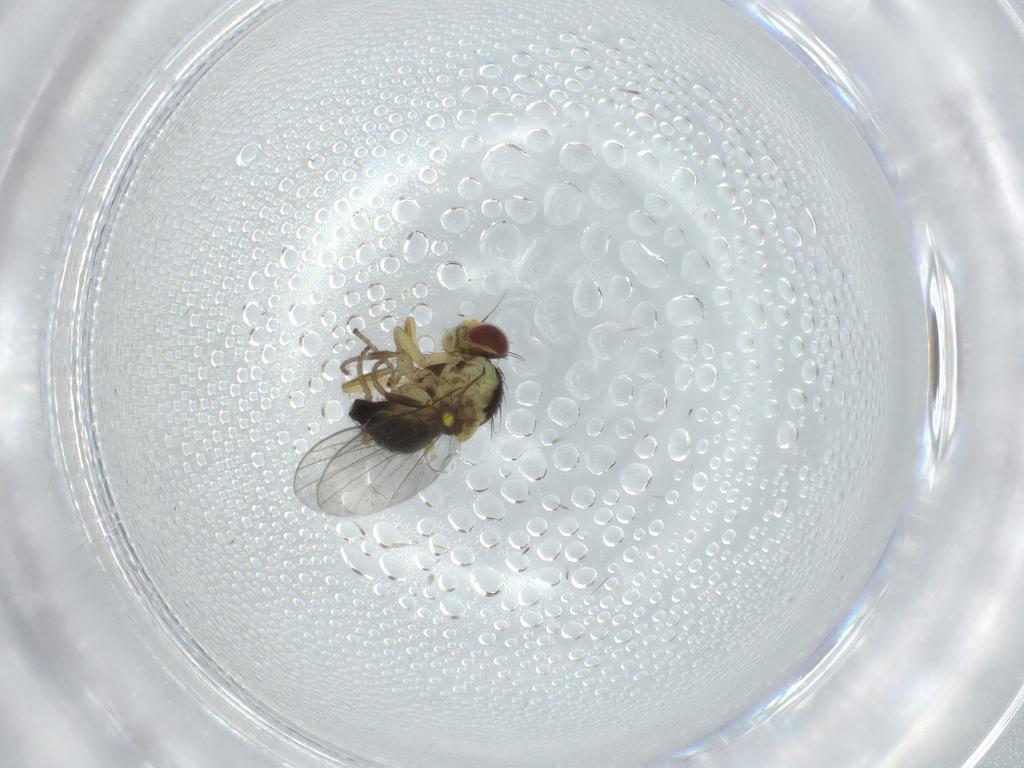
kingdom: Animalia
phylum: Arthropoda
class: Insecta
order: Diptera
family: Agromyzidae
